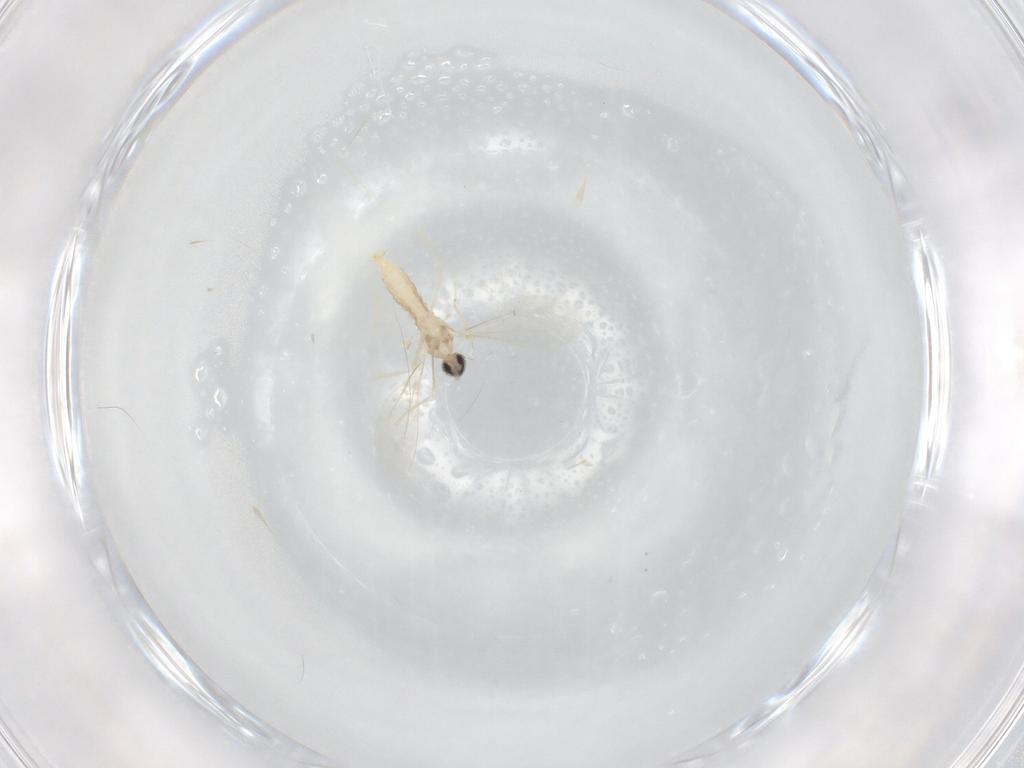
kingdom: Animalia
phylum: Arthropoda
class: Insecta
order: Diptera
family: Cecidomyiidae
